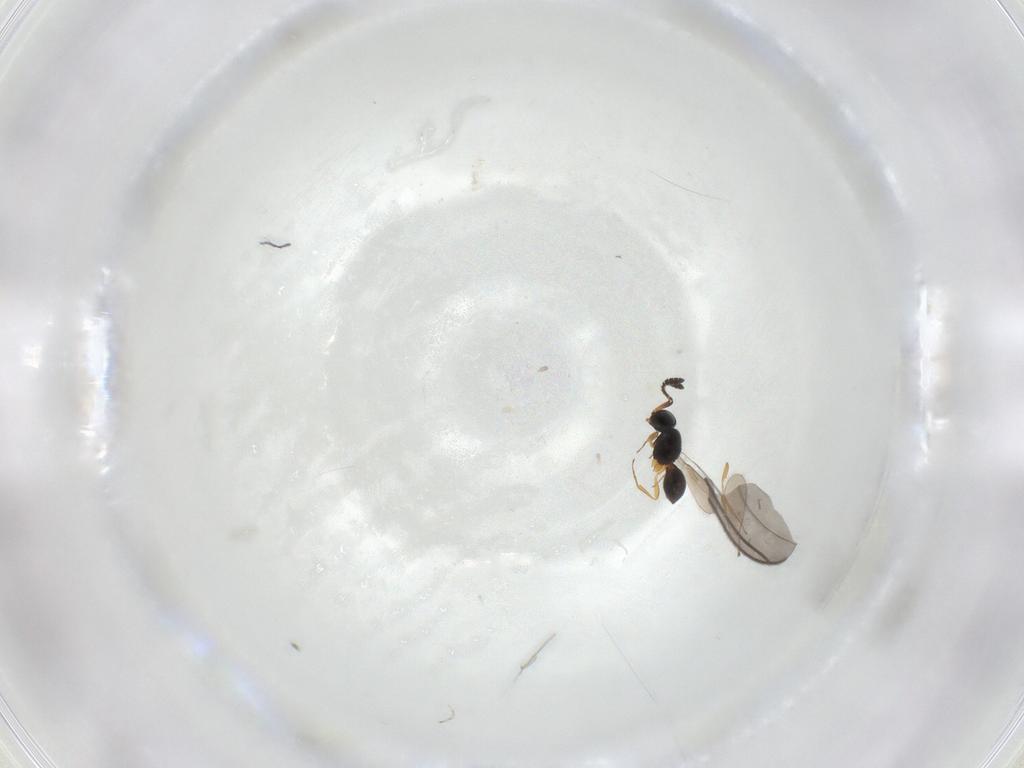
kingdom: Animalia
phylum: Arthropoda
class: Insecta
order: Hymenoptera
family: Scelionidae
